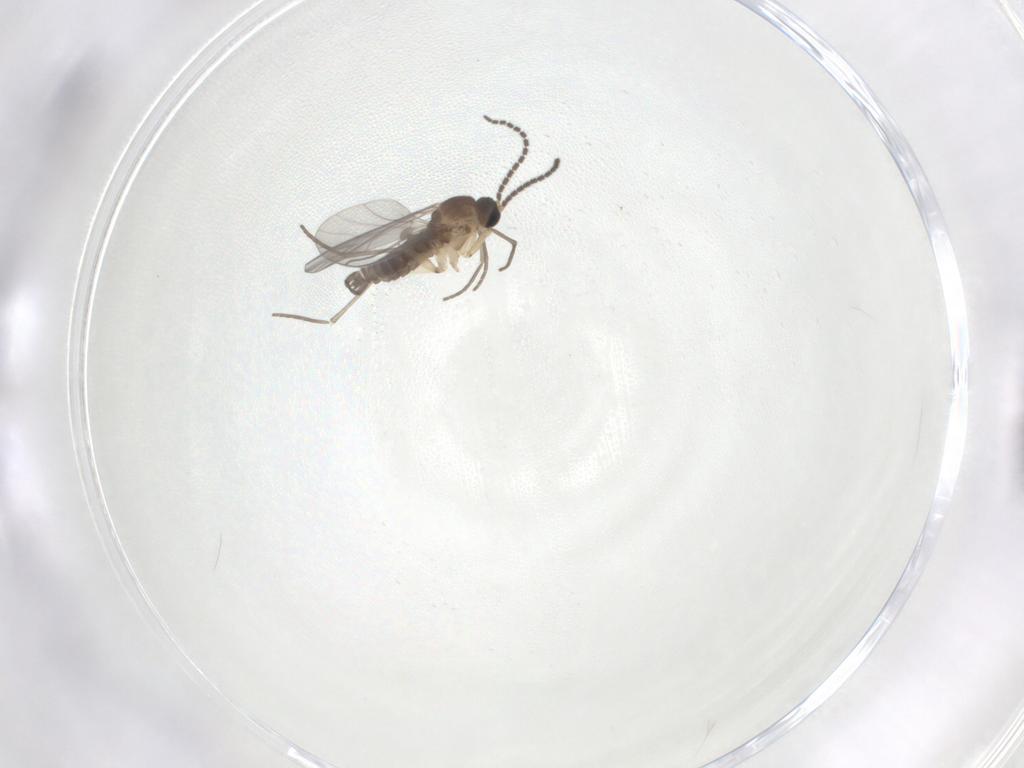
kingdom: Animalia
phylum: Arthropoda
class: Insecta
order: Diptera
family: Sciaridae
